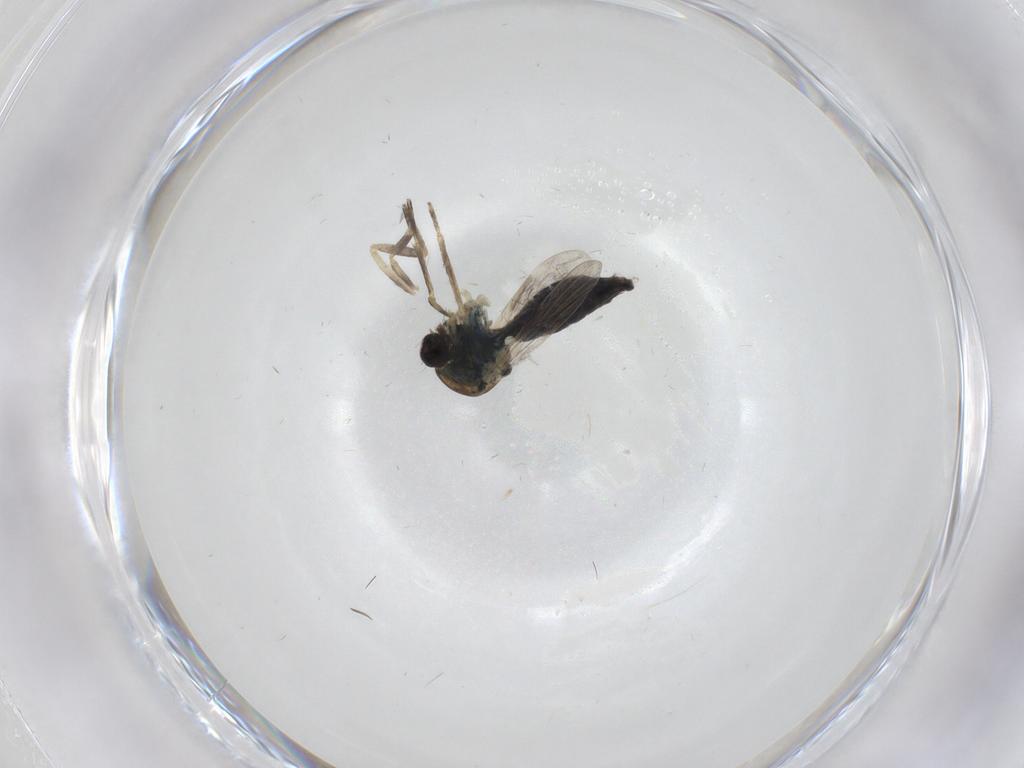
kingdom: Animalia
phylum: Arthropoda
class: Insecta
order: Diptera
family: Ceratopogonidae
